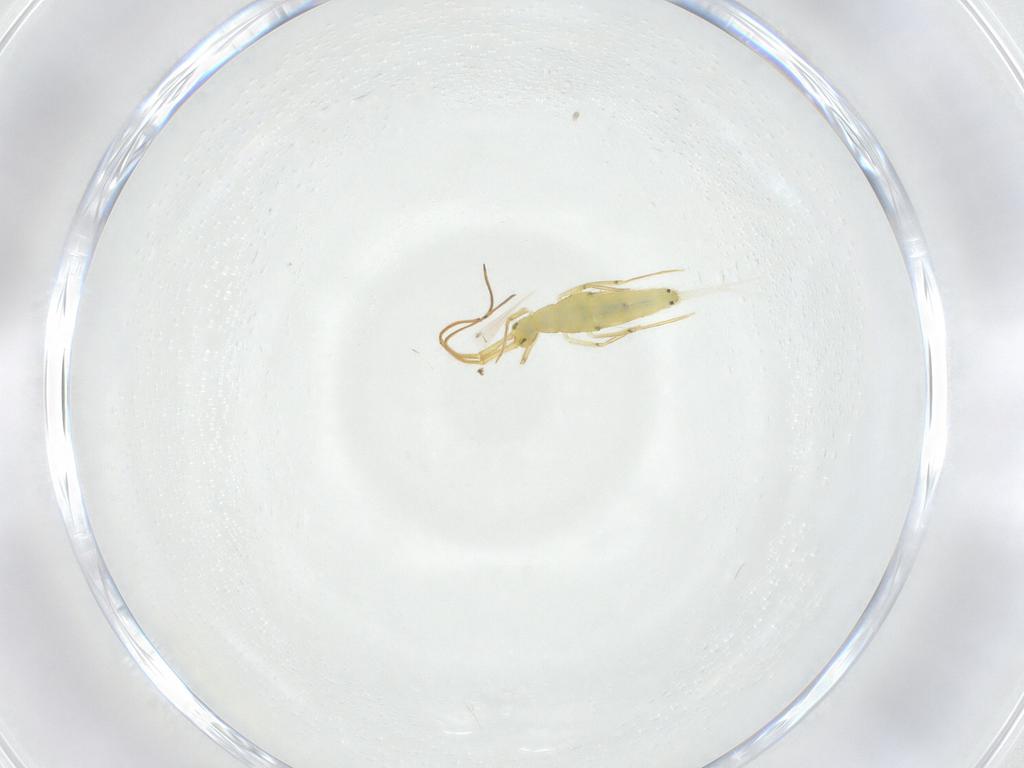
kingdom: Animalia
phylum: Arthropoda
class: Collembola
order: Entomobryomorpha
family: Entomobryidae
